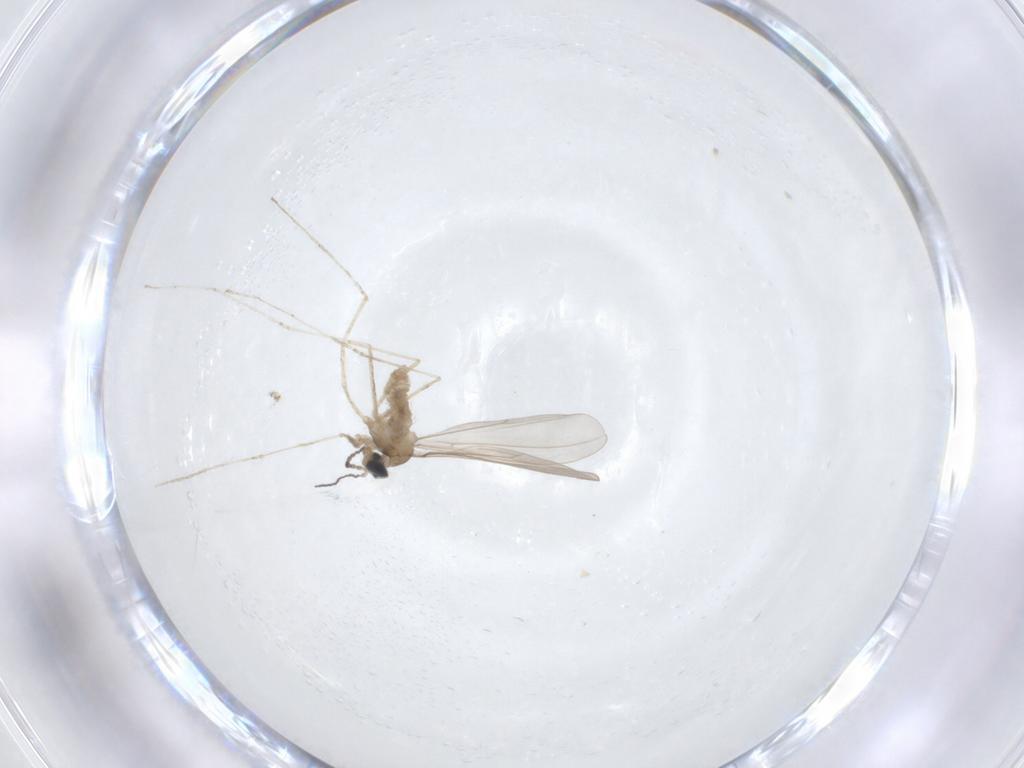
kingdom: Animalia
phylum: Arthropoda
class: Insecta
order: Diptera
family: Cecidomyiidae
